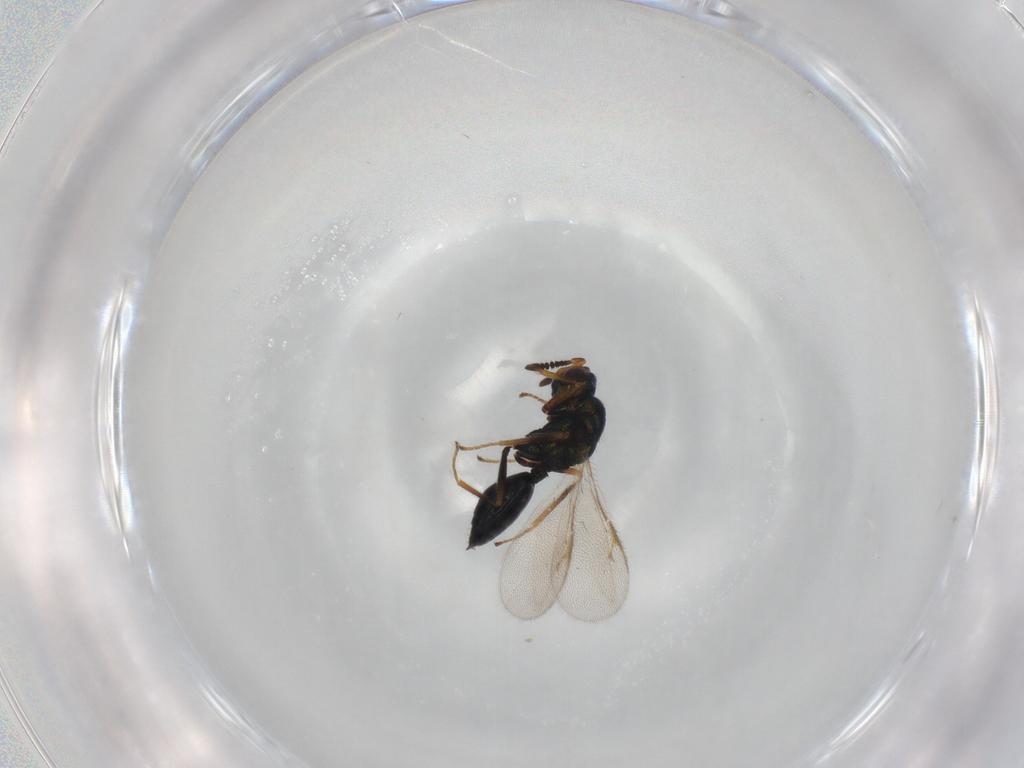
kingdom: Animalia
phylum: Arthropoda
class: Insecta
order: Hymenoptera
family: Chalcidoidea_incertae_sedis
